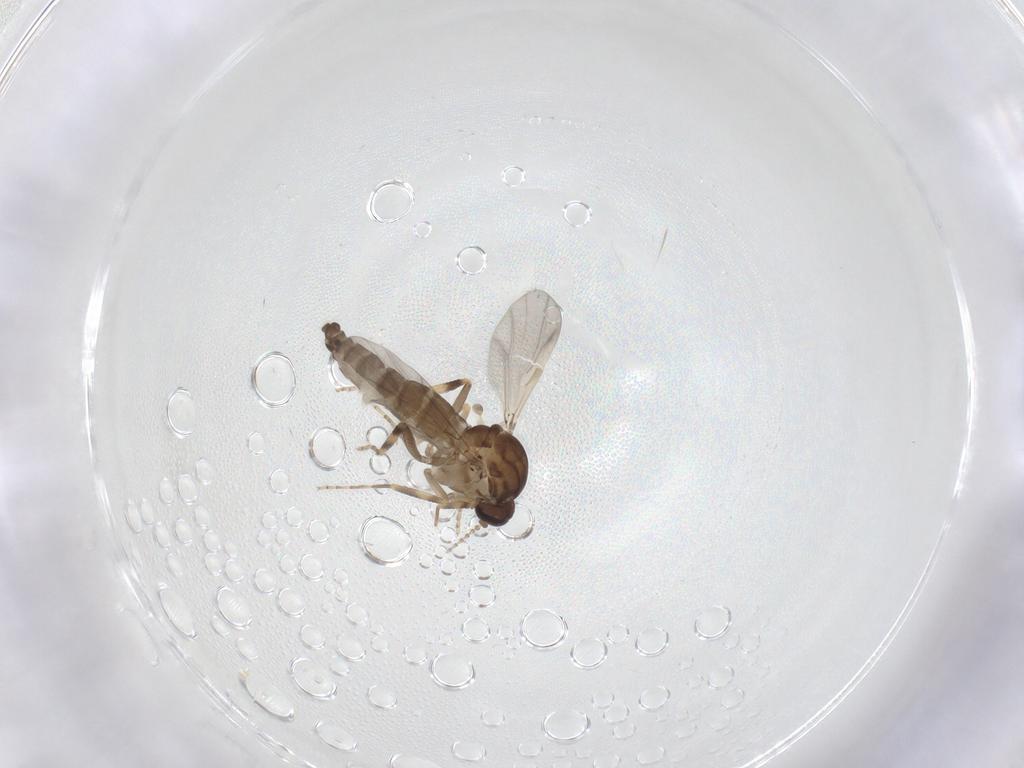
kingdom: Animalia
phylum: Arthropoda
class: Insecta
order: Diptera
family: Ceratopogonidae
